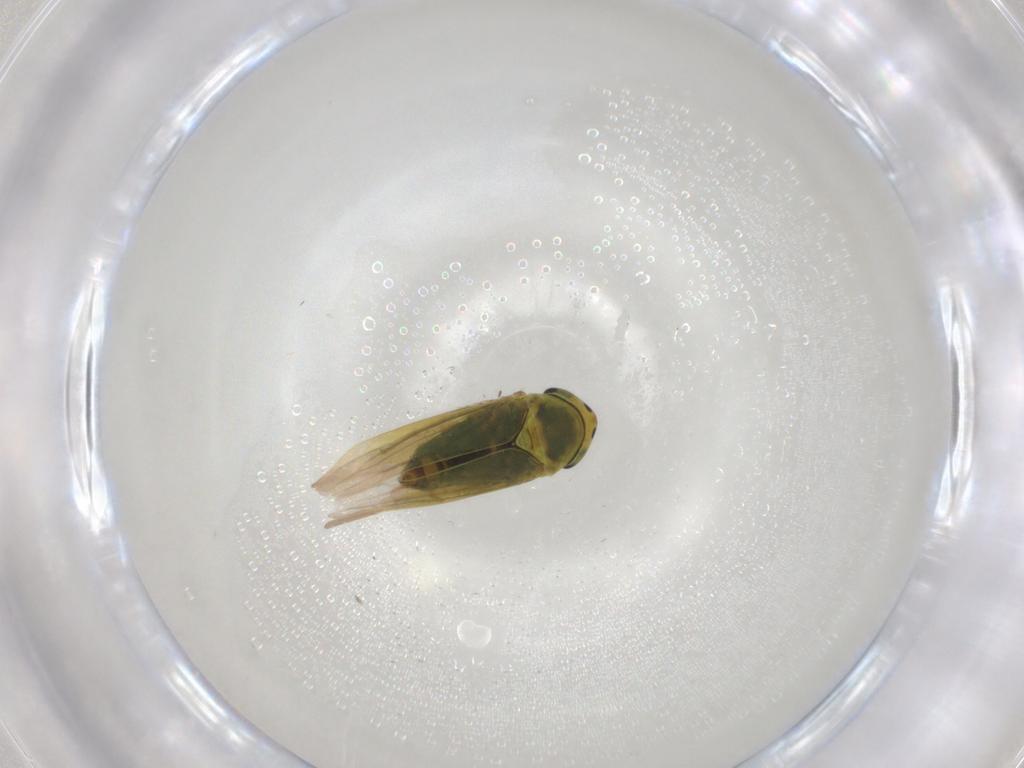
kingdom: Animalia
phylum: Arthropoda
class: Insecta
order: Hemiptera
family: Cicadellidae
